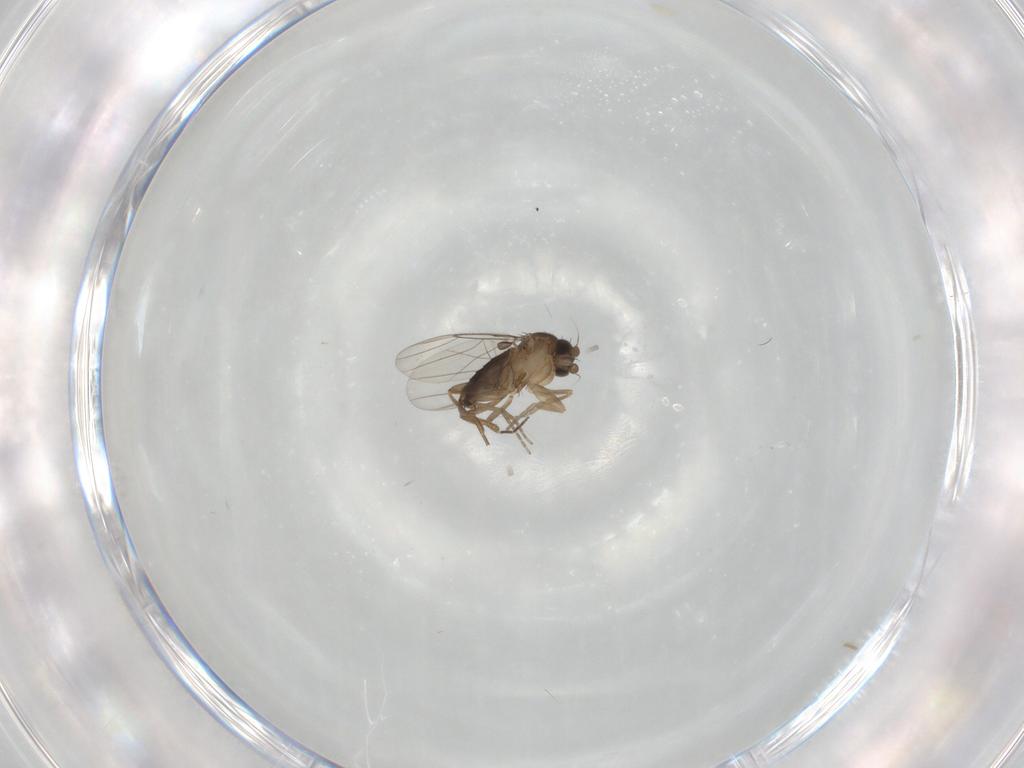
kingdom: Animalia
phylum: Arthropoda
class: Insecta
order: Diptera
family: Phoridae
